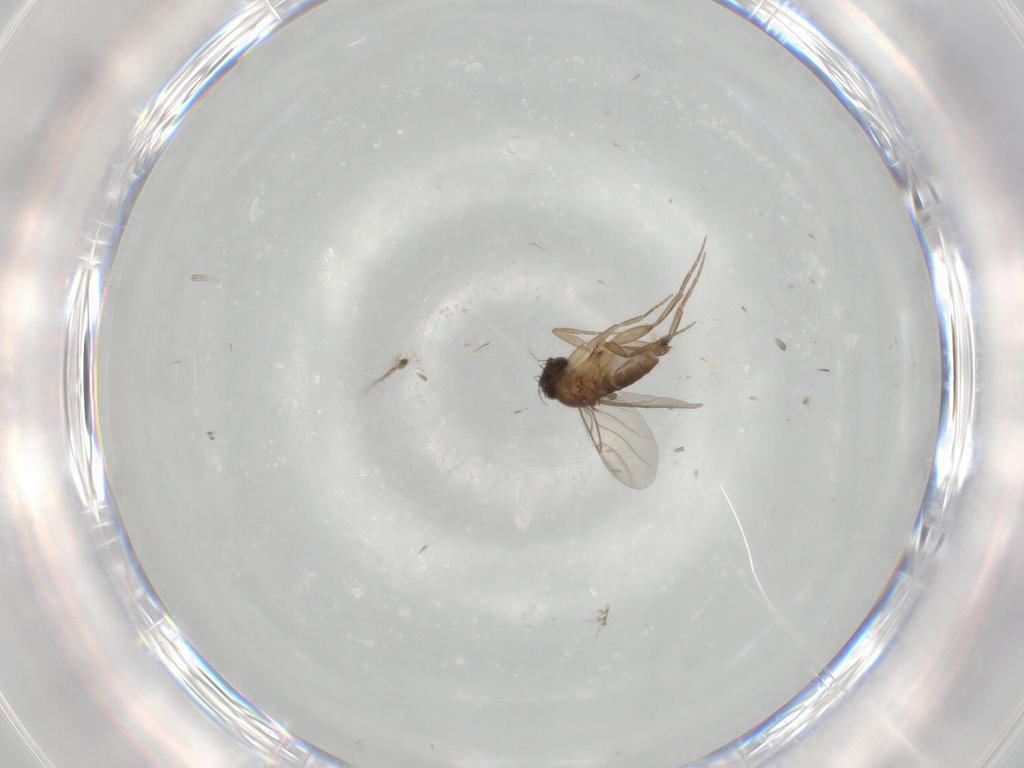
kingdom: Animalia
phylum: Arthropoda
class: Insecta
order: Diptera
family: Phoridae
